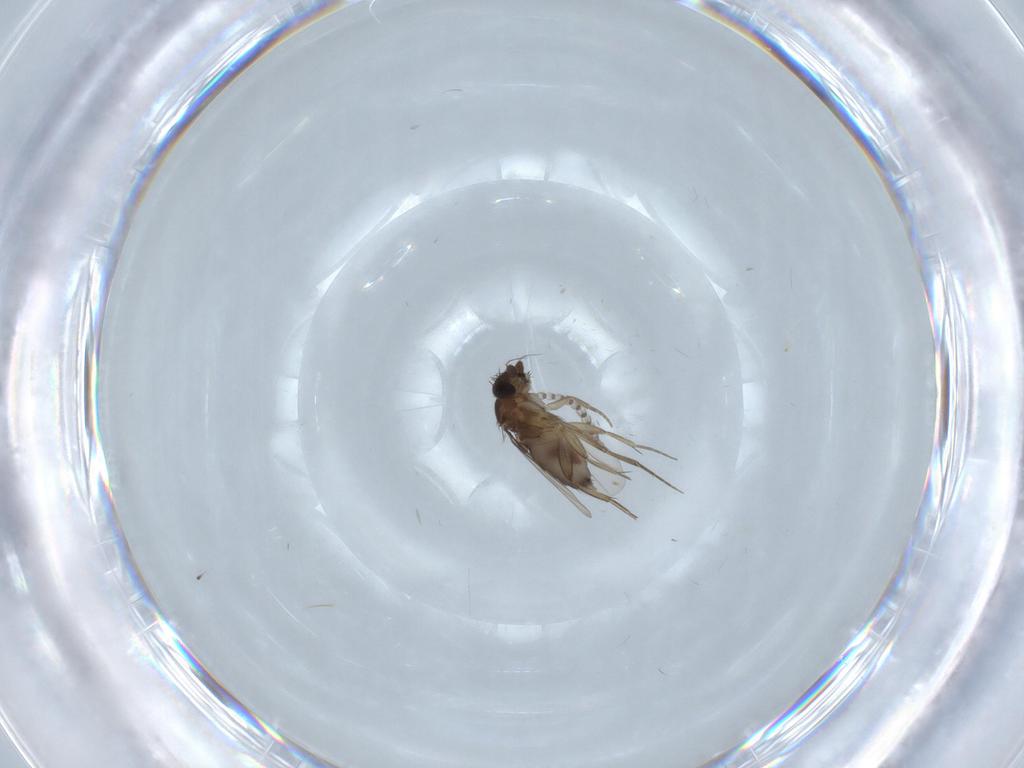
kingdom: Animalia
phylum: Arthropoda
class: Insecta
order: Diptera
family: Phoridae
